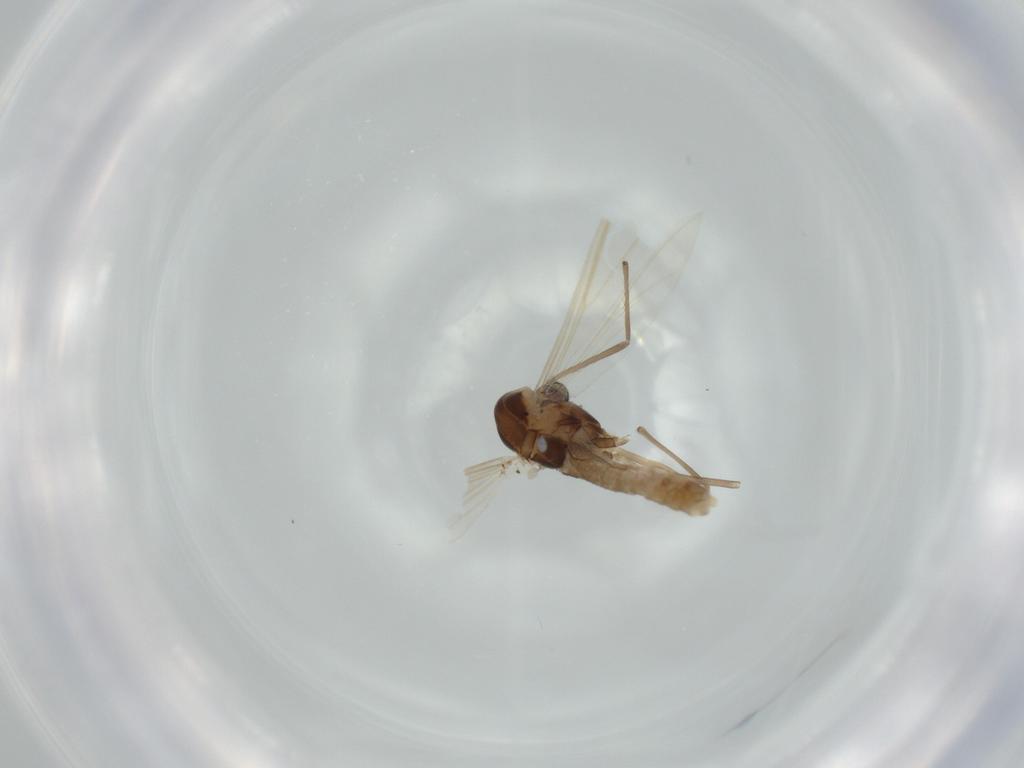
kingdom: Animalia
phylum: Arthropoda
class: Insecta
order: Diptera
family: Chironomidae
